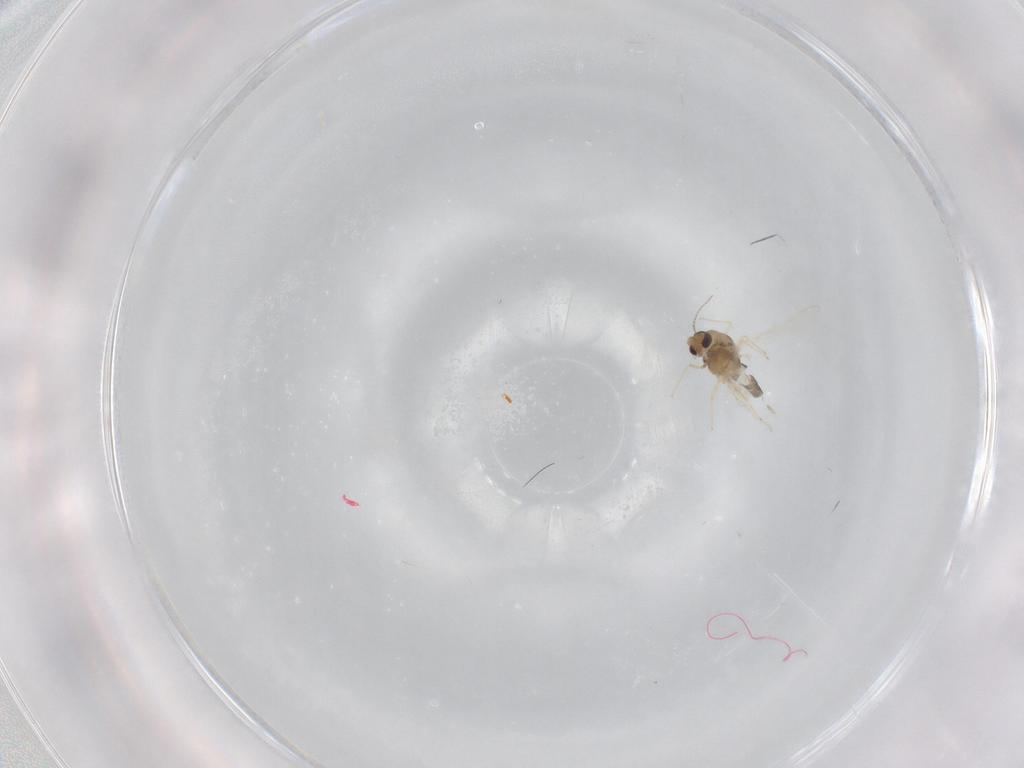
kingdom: Animalia
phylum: Arthropoda
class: Insecta
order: Diptera
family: Chironomidae
